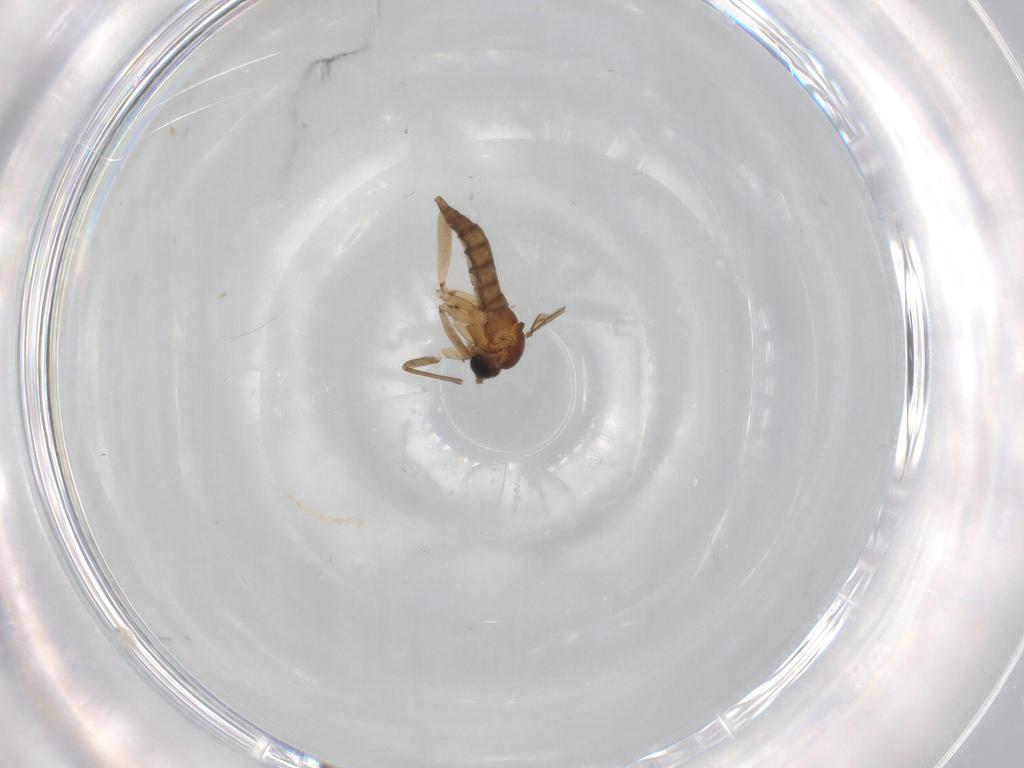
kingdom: Animalia
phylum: Arthropoda
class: Insecta
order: Diptera
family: Sciaridae
